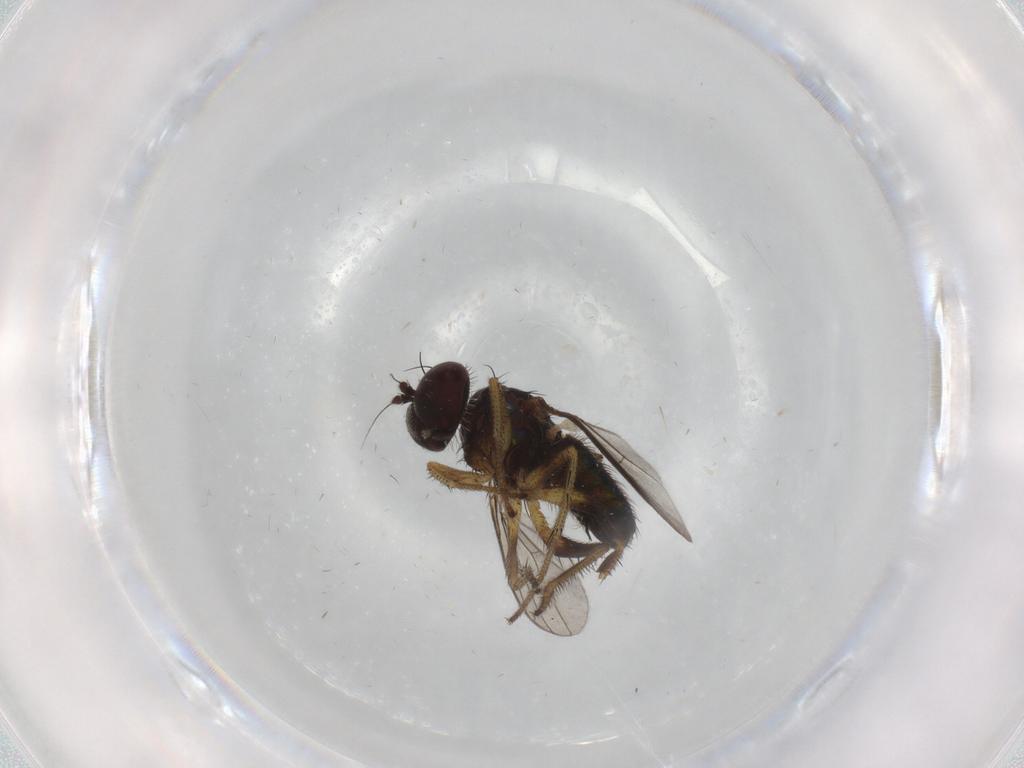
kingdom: Animalia
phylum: Arthropoda
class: Insecta
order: Diptera
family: Dolichopodidae
